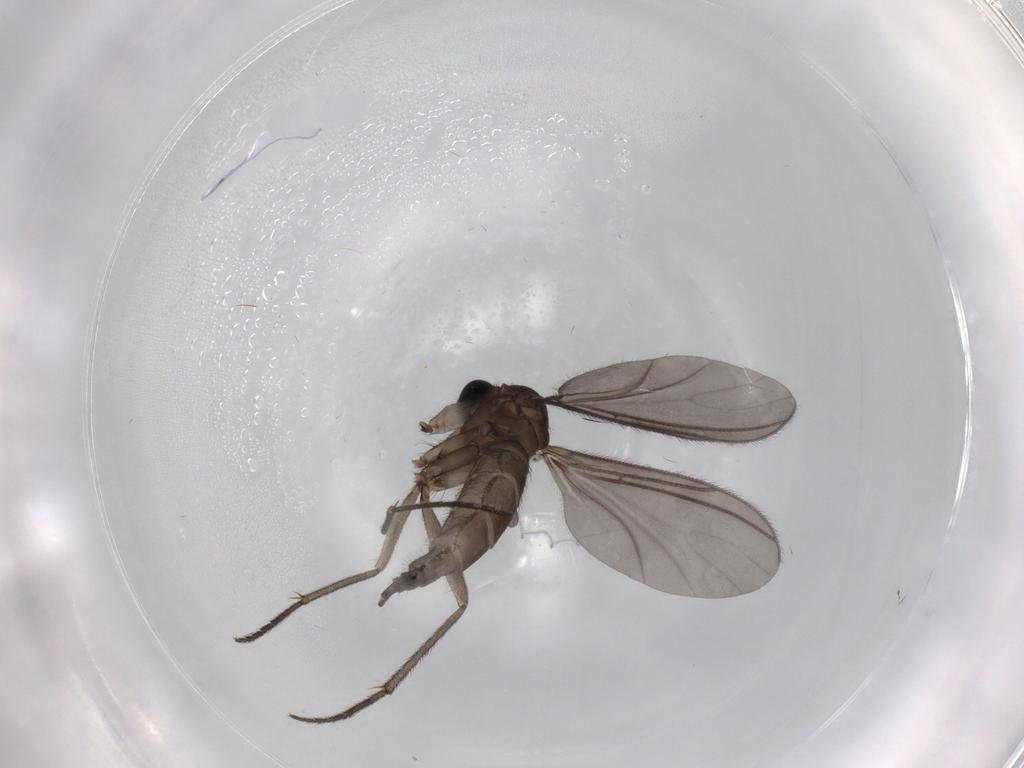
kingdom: Animalia
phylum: Arthropoda
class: Insecta
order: Diptera
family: Sciaridae
